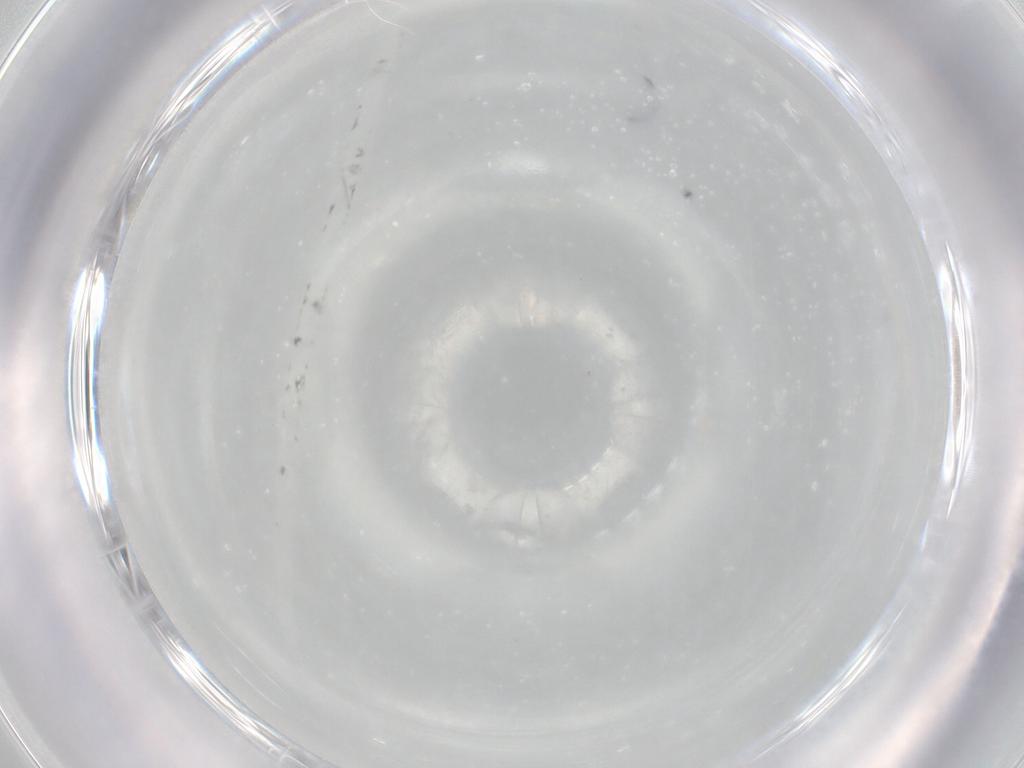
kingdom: Animalia
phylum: Arthropoda
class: Insecta
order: Diptera
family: Cecidomyiidae
